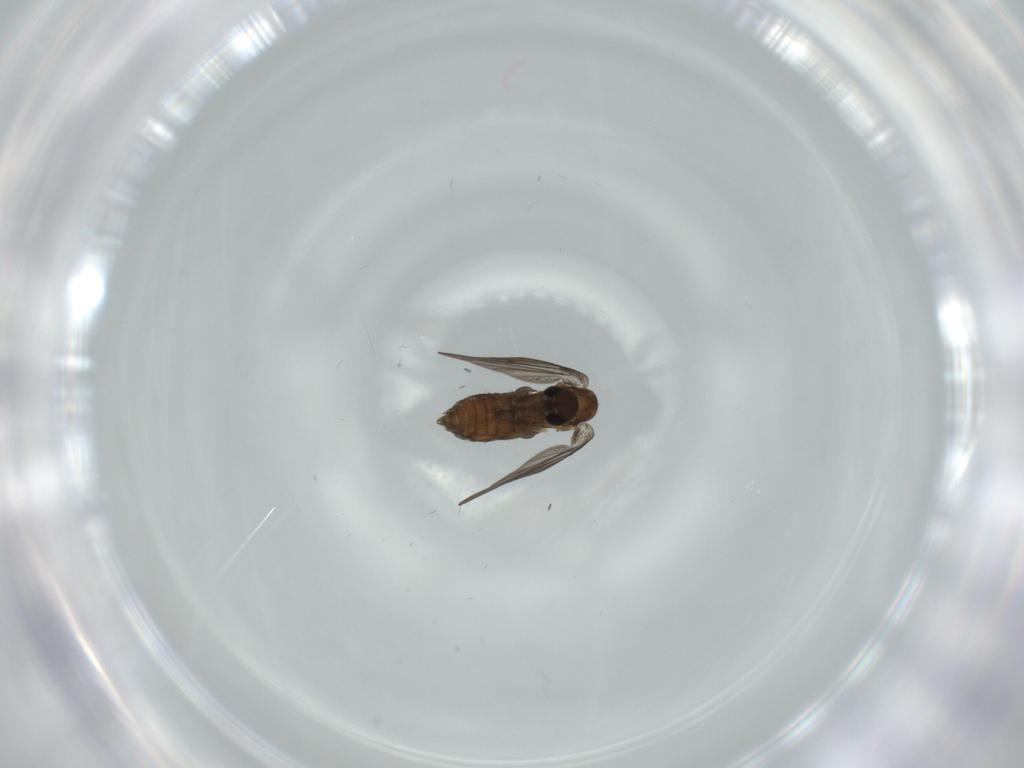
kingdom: Animalia
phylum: Arthropoda
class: Insecta
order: Diptera
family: Psychodidae
